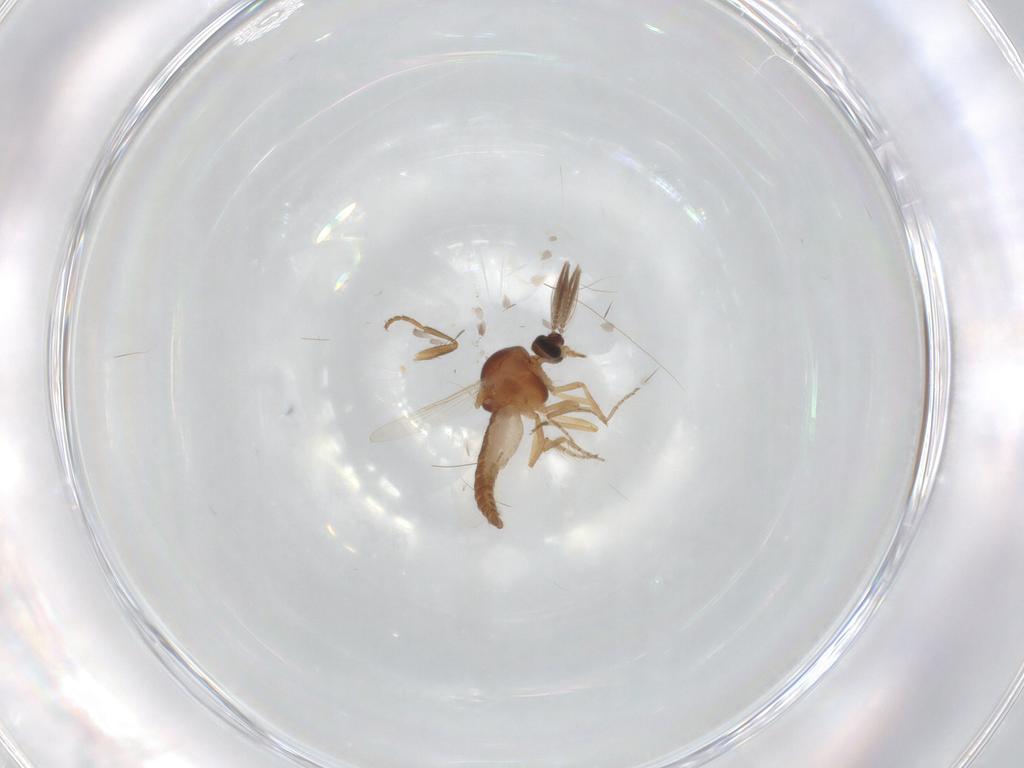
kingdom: Animalia
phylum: Arthropoda
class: Insecta
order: Diptera
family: Ceratopogonidae
